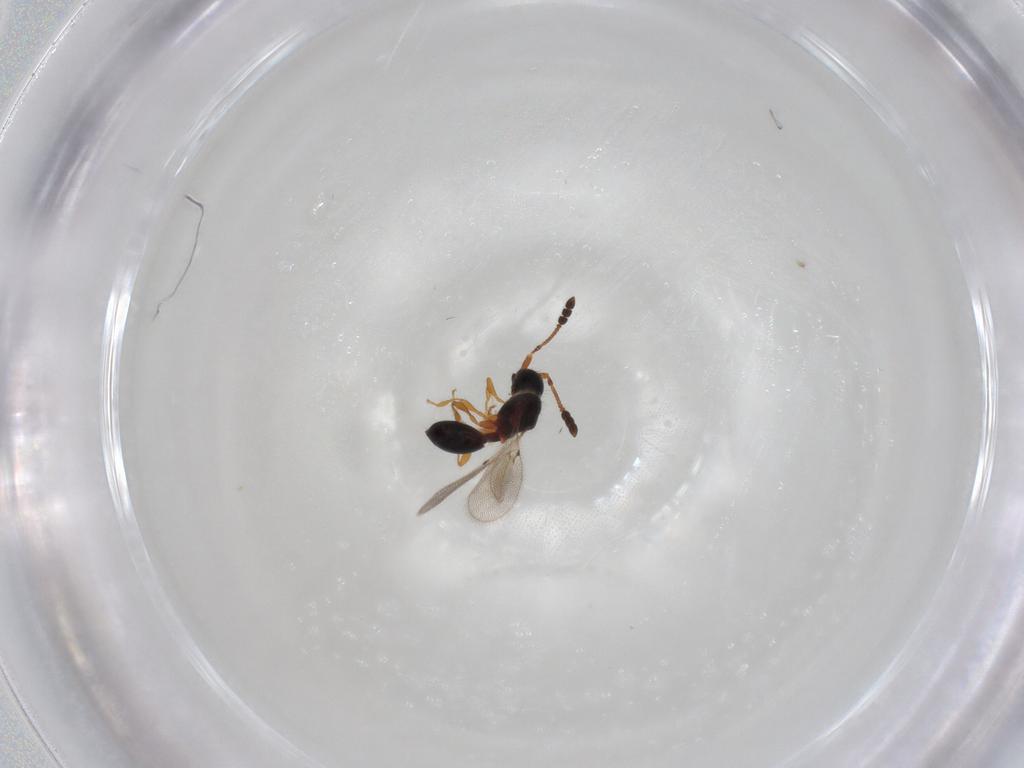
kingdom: Animalia
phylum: Arthropoda
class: Insecta
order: Hymenoptera
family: Diapriidae
